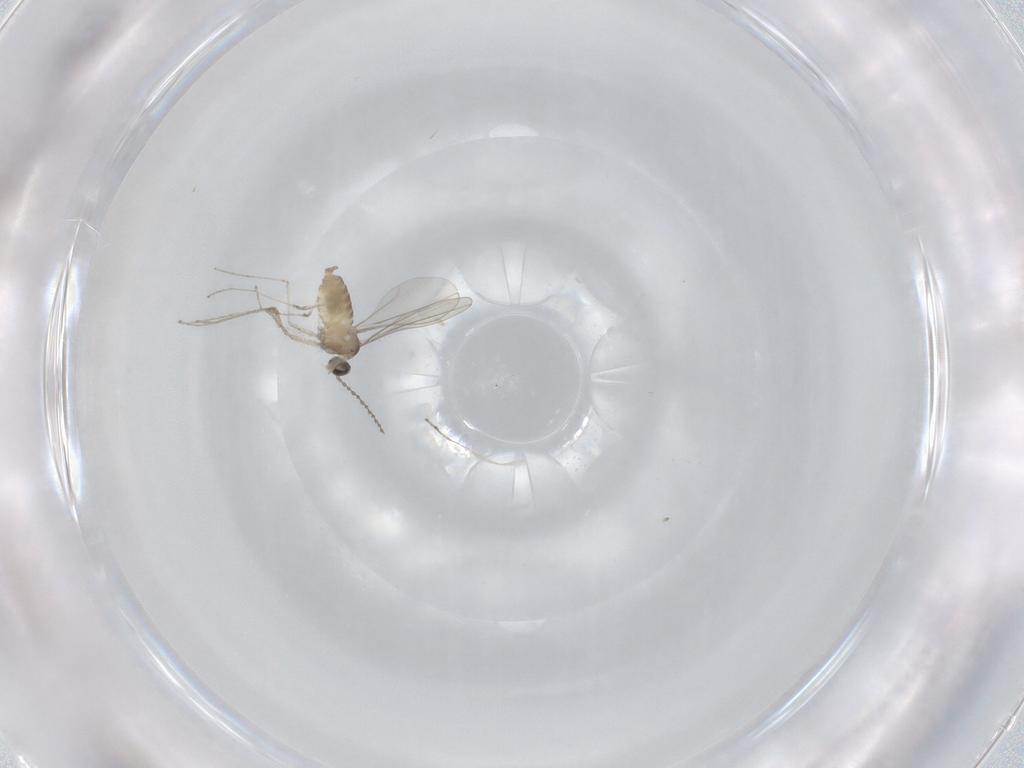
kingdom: Animalia
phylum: Arthropoda
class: Insecta
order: Diptera
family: Cecidomyiidae
